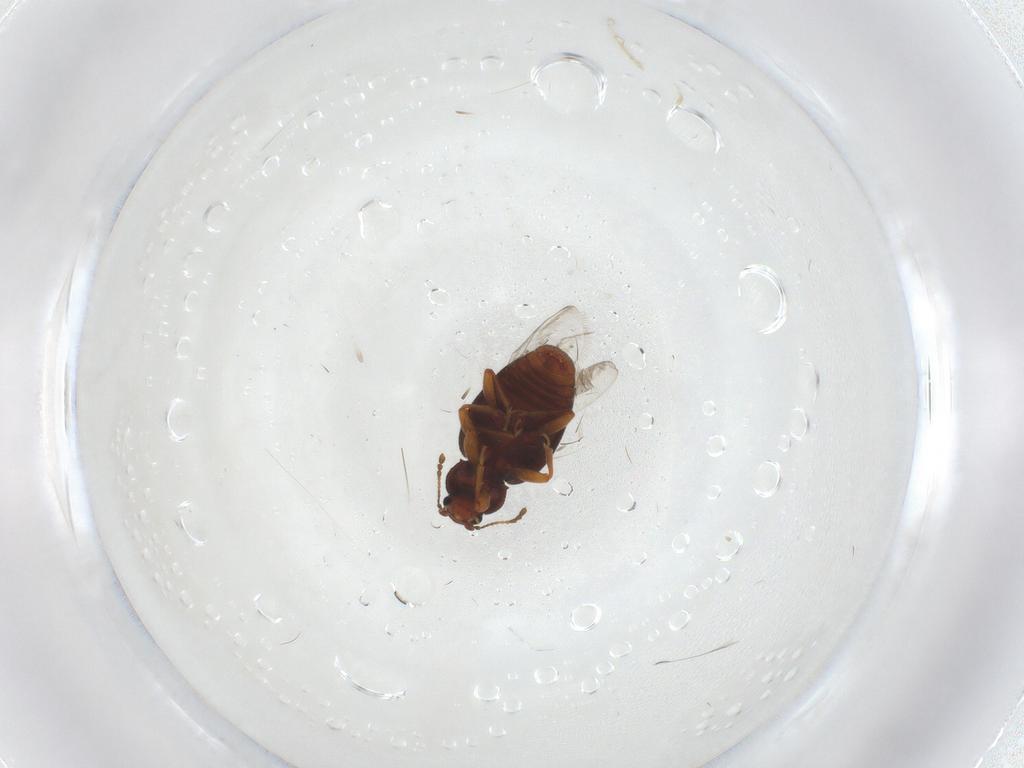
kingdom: Animalia
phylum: Arthropoda
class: Insecta
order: Coleoptera
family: Latridiidae
